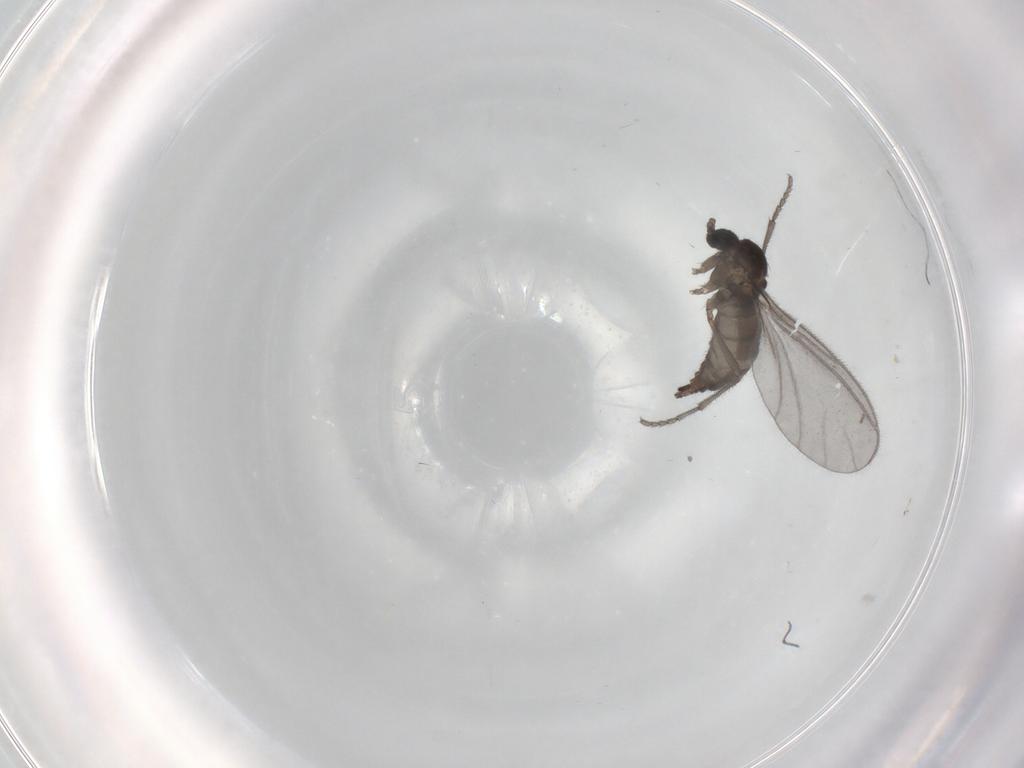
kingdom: Animalia
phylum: Arthropoda
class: Insecta
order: Diptera
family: Sciaridae
